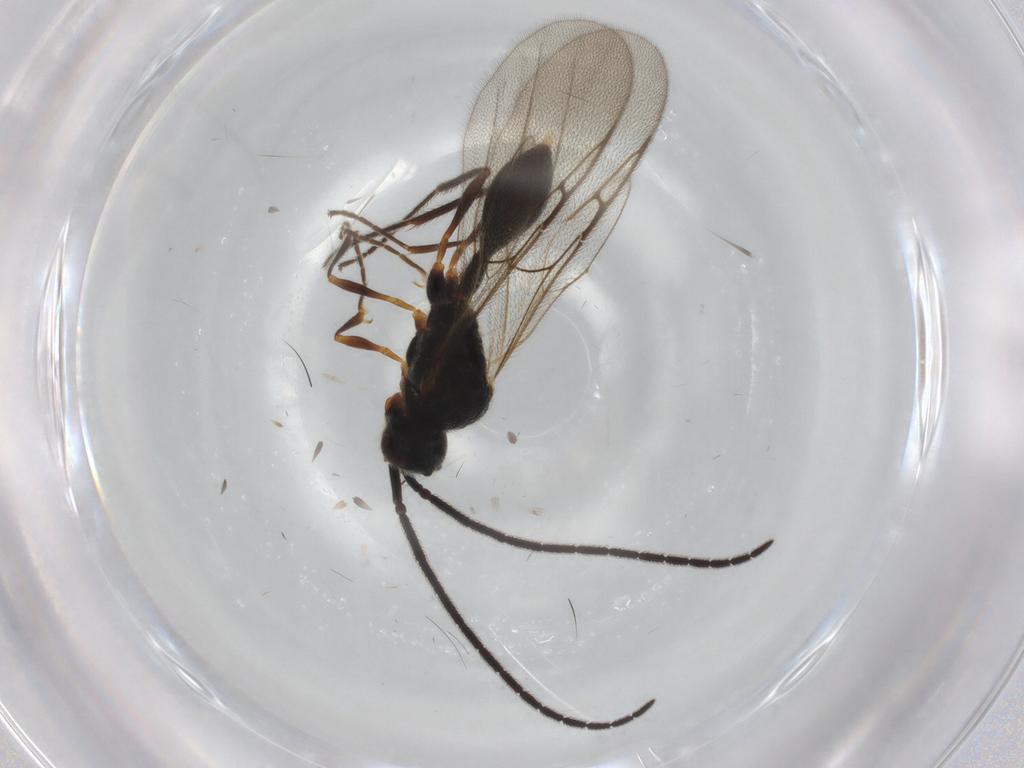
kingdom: Animalia
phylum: Arthropoda
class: Insecta
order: Hymenoptera
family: Diapriidae
